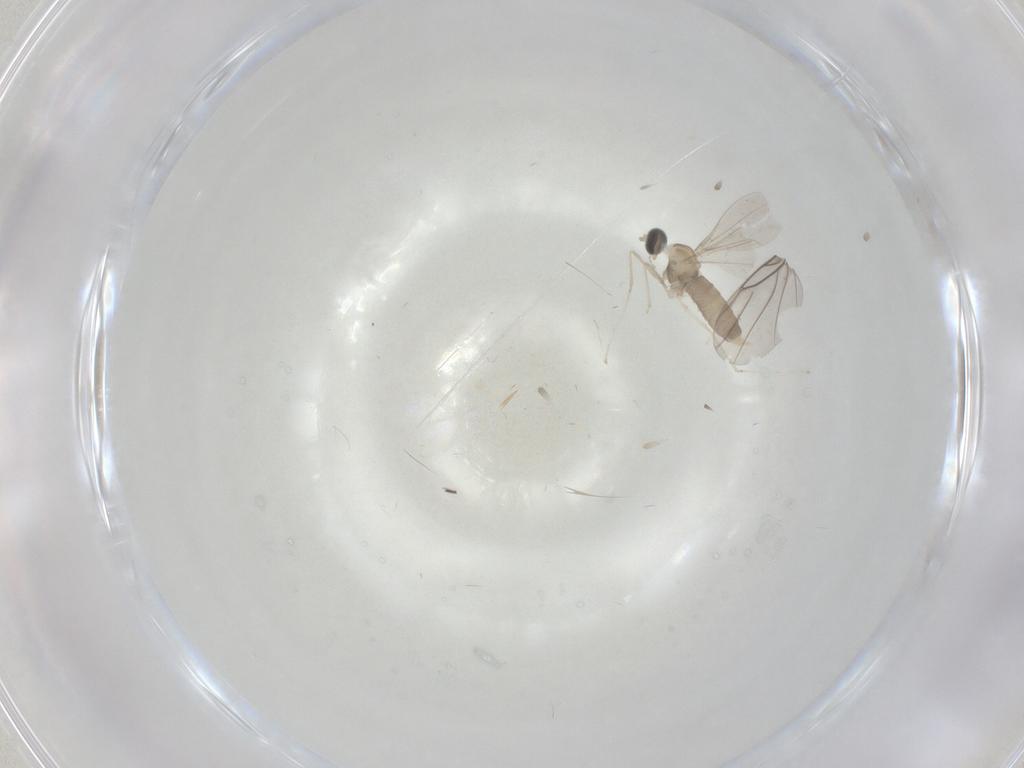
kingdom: Animalia
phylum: Arthropoda
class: Insecta
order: Diptera
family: Cecidomyiidae
